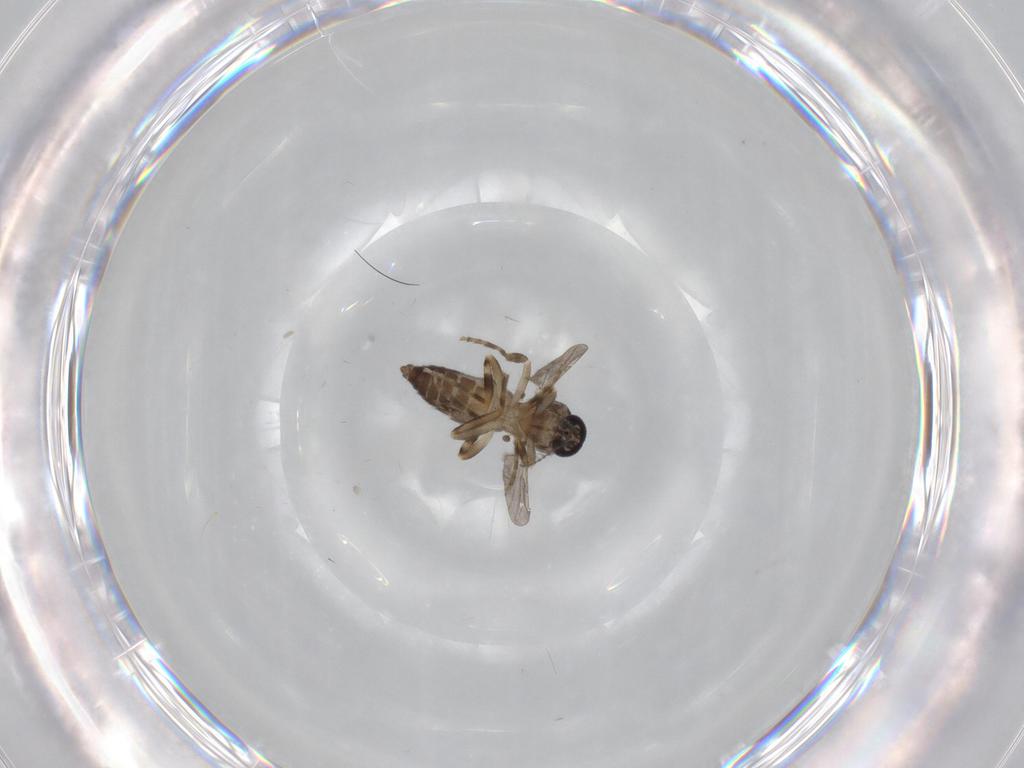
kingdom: Animalia
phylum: Arthropoda
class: Insecta
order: Diptera
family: Ceratopogonidae
